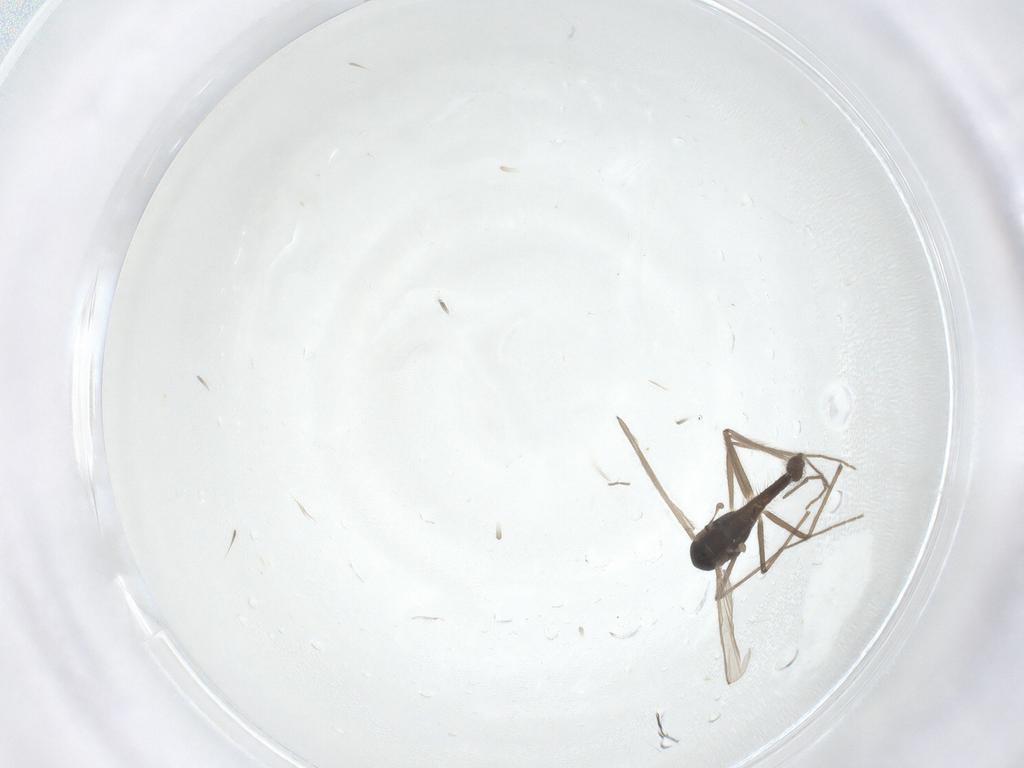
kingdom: Animalia
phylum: Arthropoda
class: Insecta
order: Diptera
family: Chironomidae
